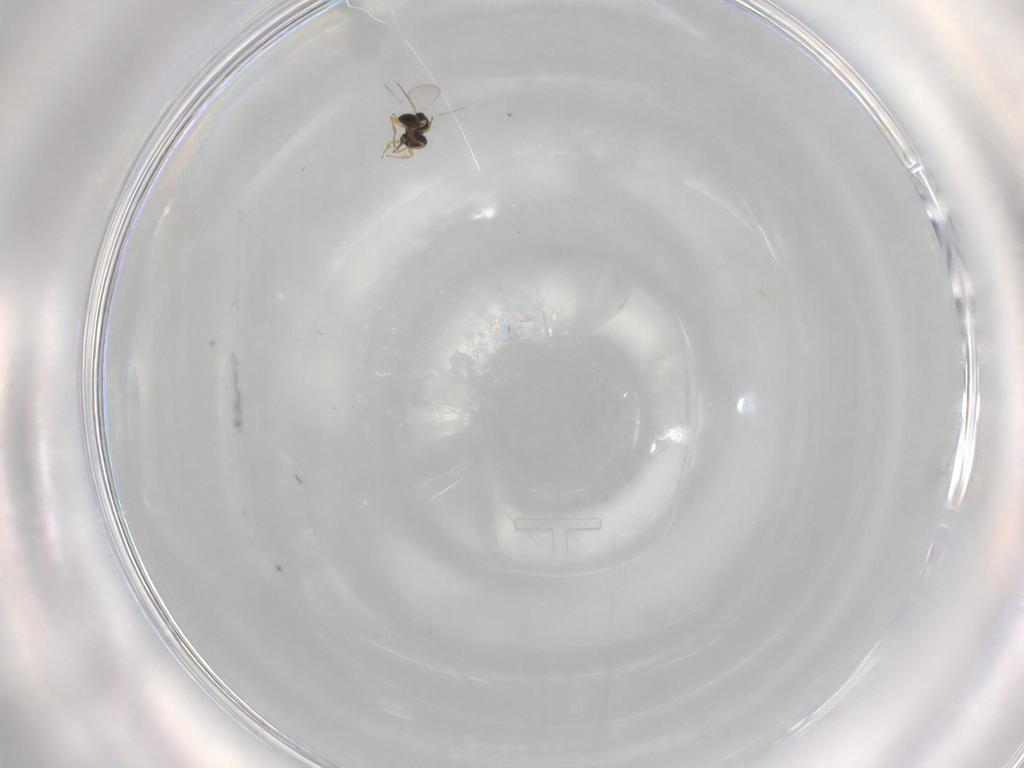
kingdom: Animalia
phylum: Arthropoda
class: Insecta
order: Hymenoptera
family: Platygastridae
